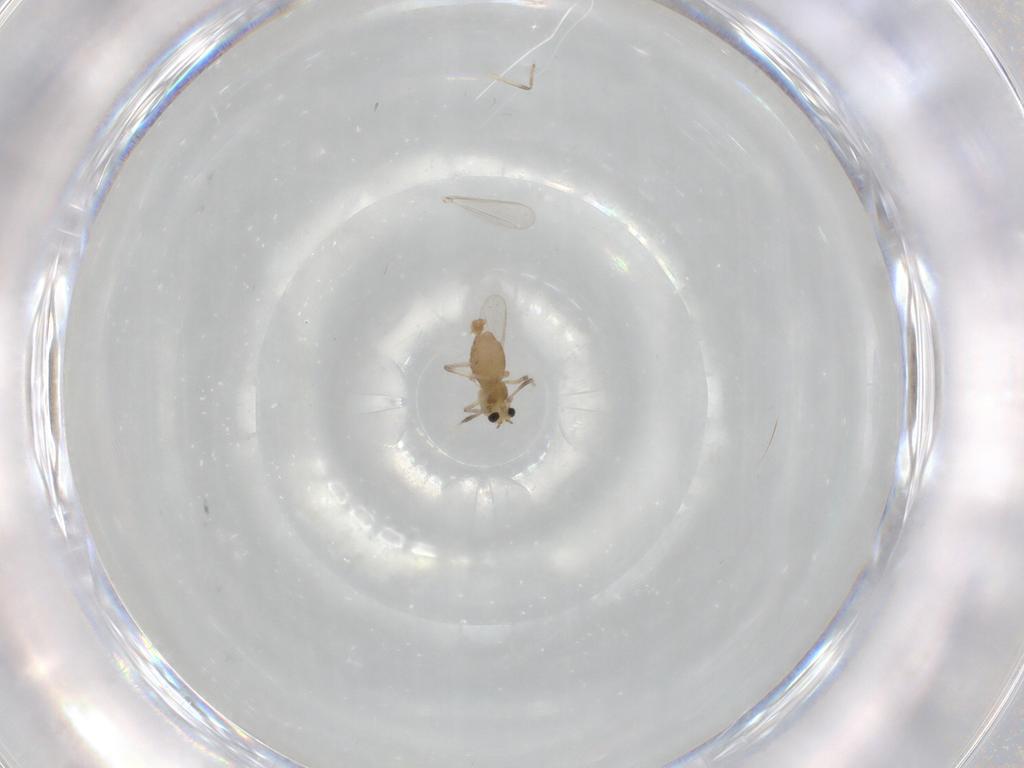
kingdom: Animalia
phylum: Arthropoda
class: Insecta
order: Diptera
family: Chironomidae
